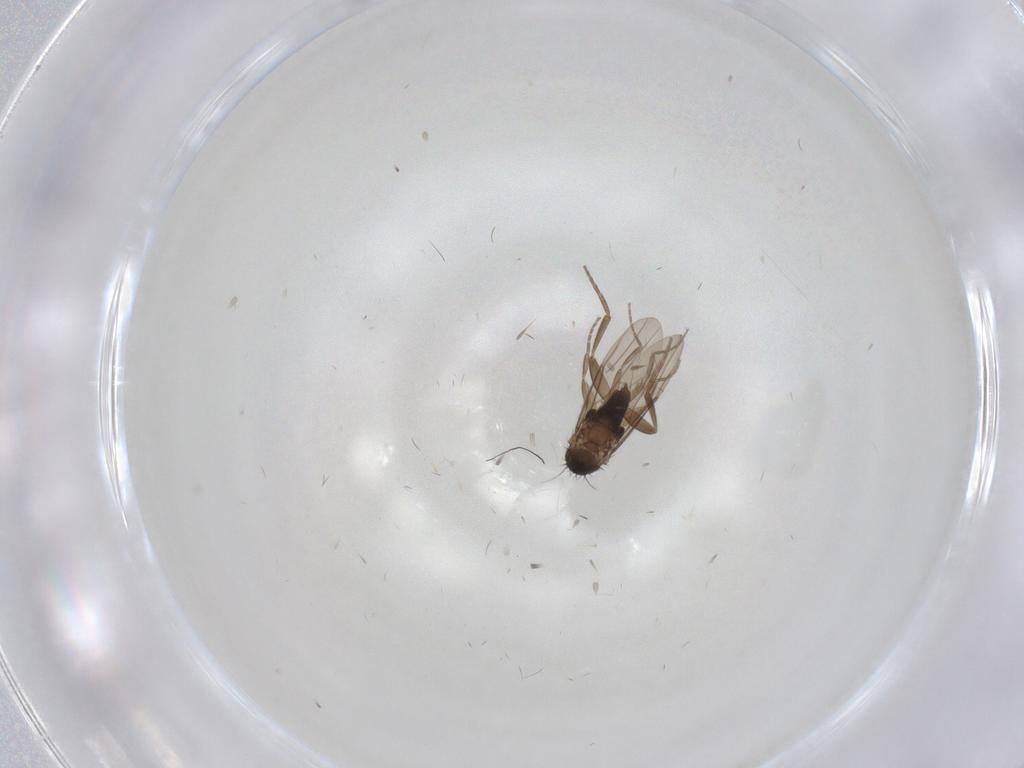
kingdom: Animalia
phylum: Arthropoda
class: Insecta
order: Diptera
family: Phoridae
